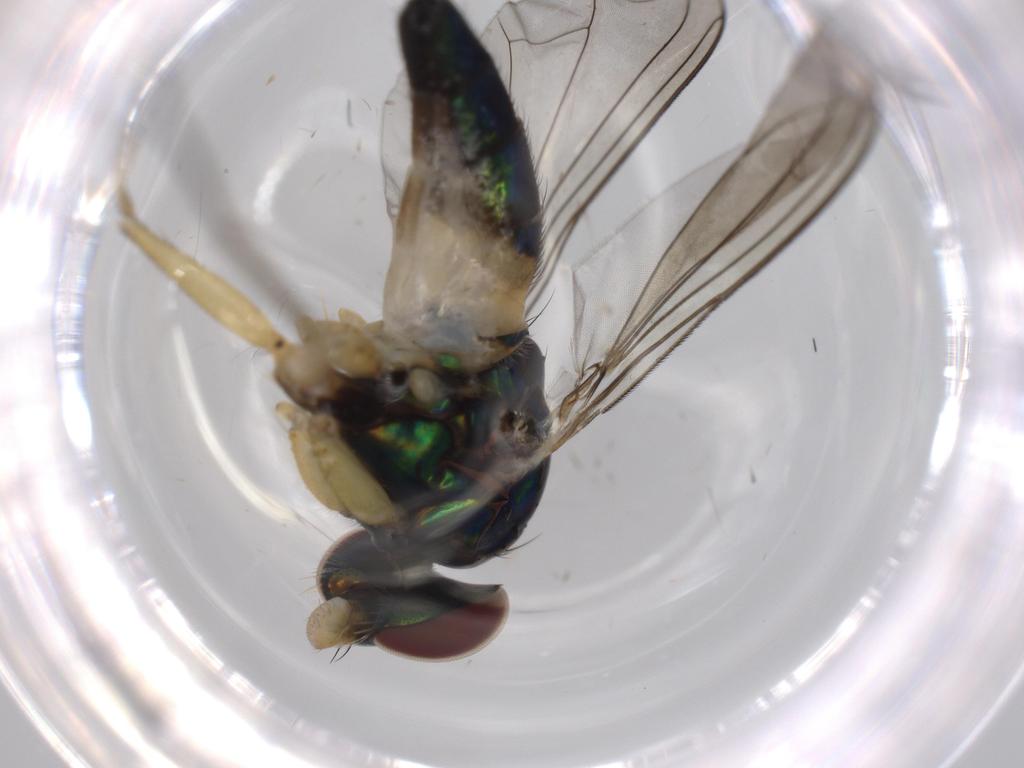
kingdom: Animalia
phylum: Arthropoda
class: Insecta
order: Diptera
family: Dolichopodidae
